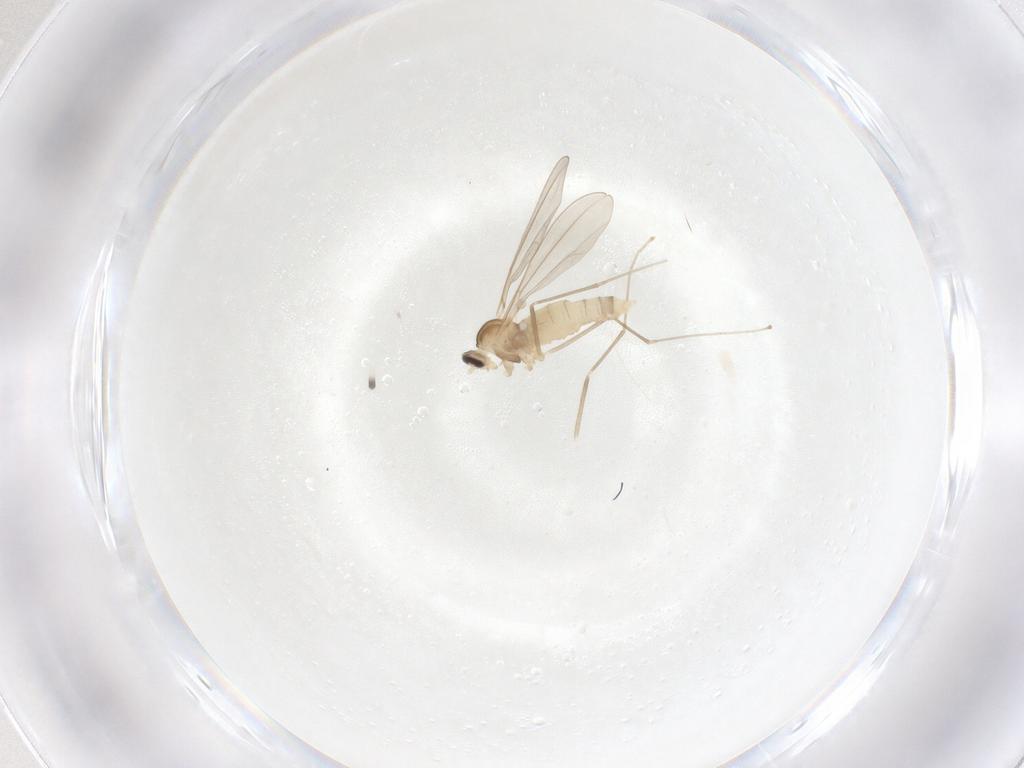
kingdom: Animalia
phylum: Arthropoda
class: Insecta
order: Diptera
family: Cecidomyiidae
